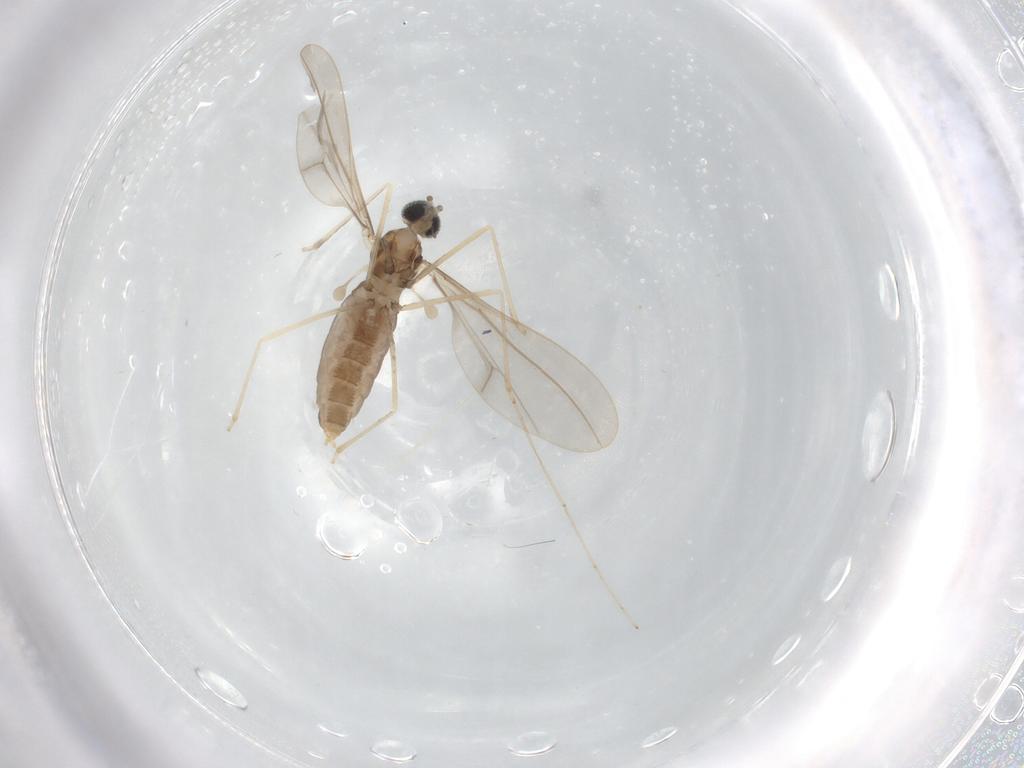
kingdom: Animalia
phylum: Arthropoda
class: Insecta
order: Diptera
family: Cecidomyiidae
